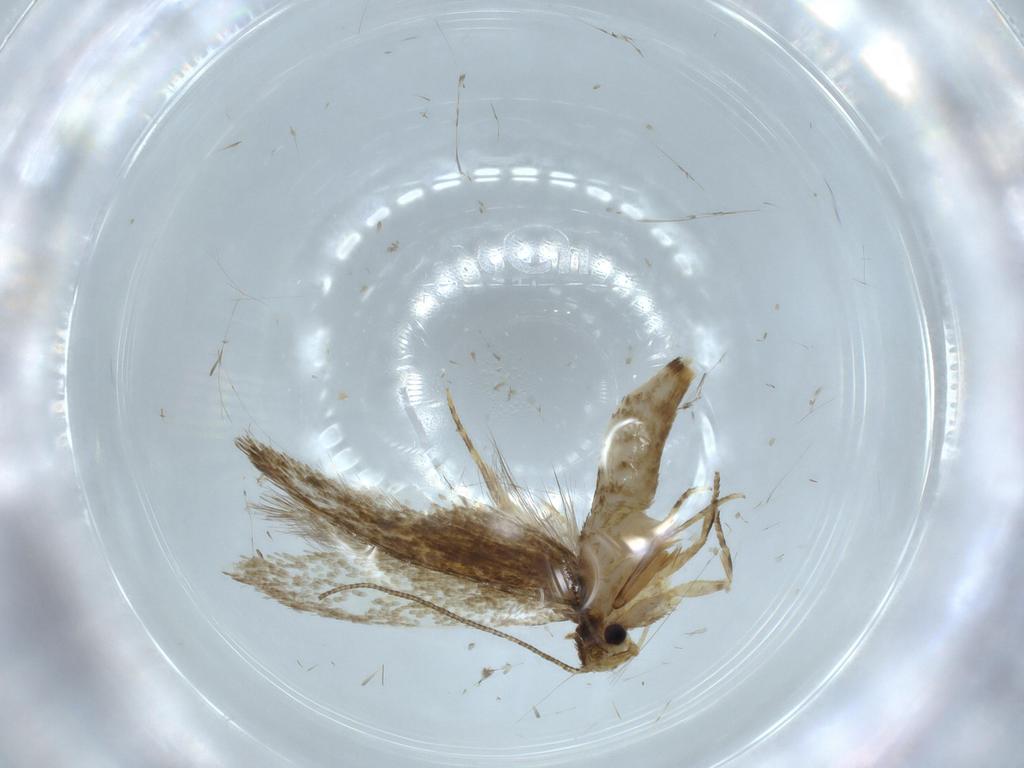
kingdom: Animalia
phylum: Arthropoda
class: Insecta
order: Lepidoptera
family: Tineidae
